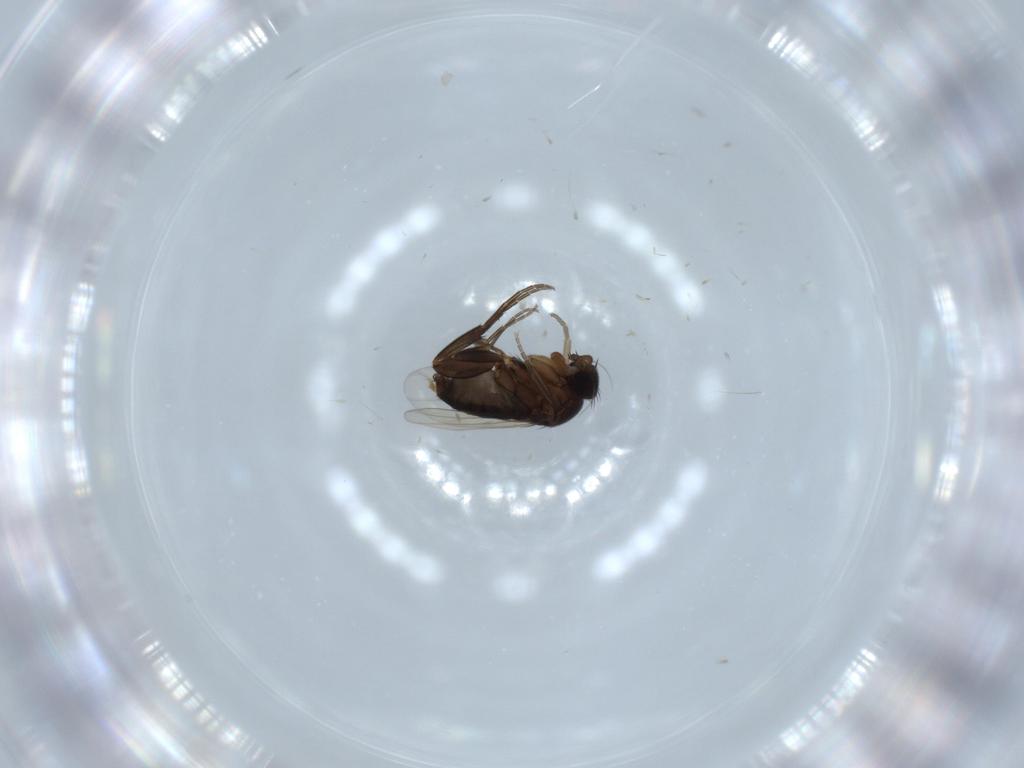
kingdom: Animalia
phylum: Arthropoda
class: Insecta
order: Diptera
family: Phoridae
